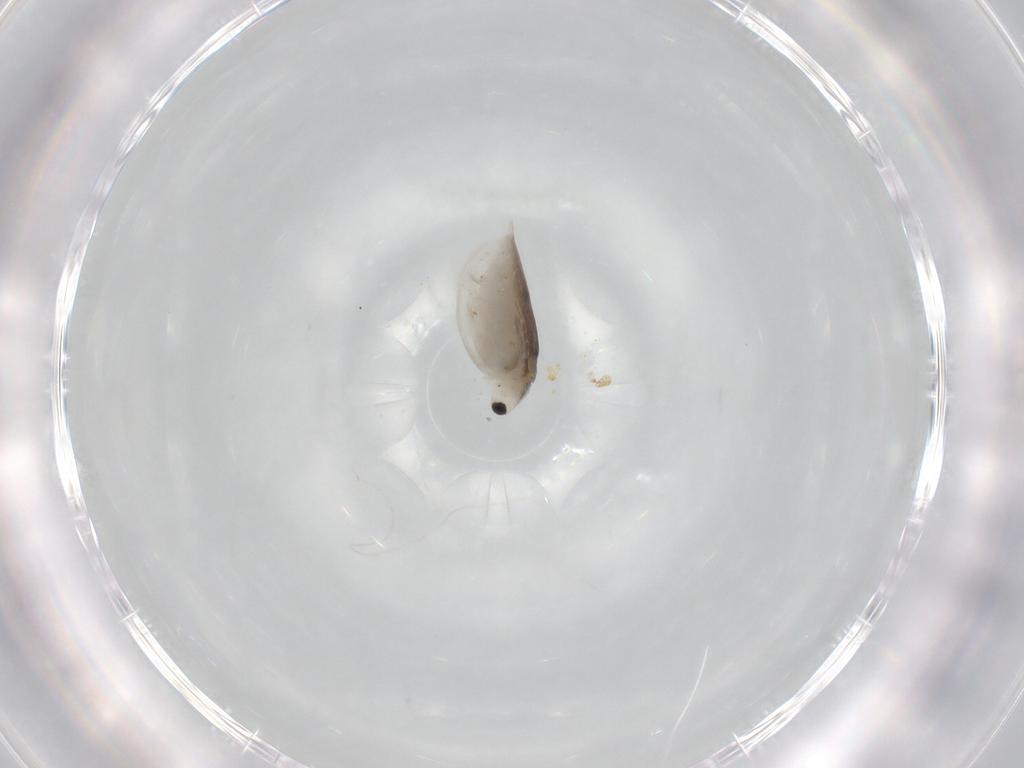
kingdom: Animalia
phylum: Arthropoda
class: Branchiopoda
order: Diplostraca
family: Daphniidae
